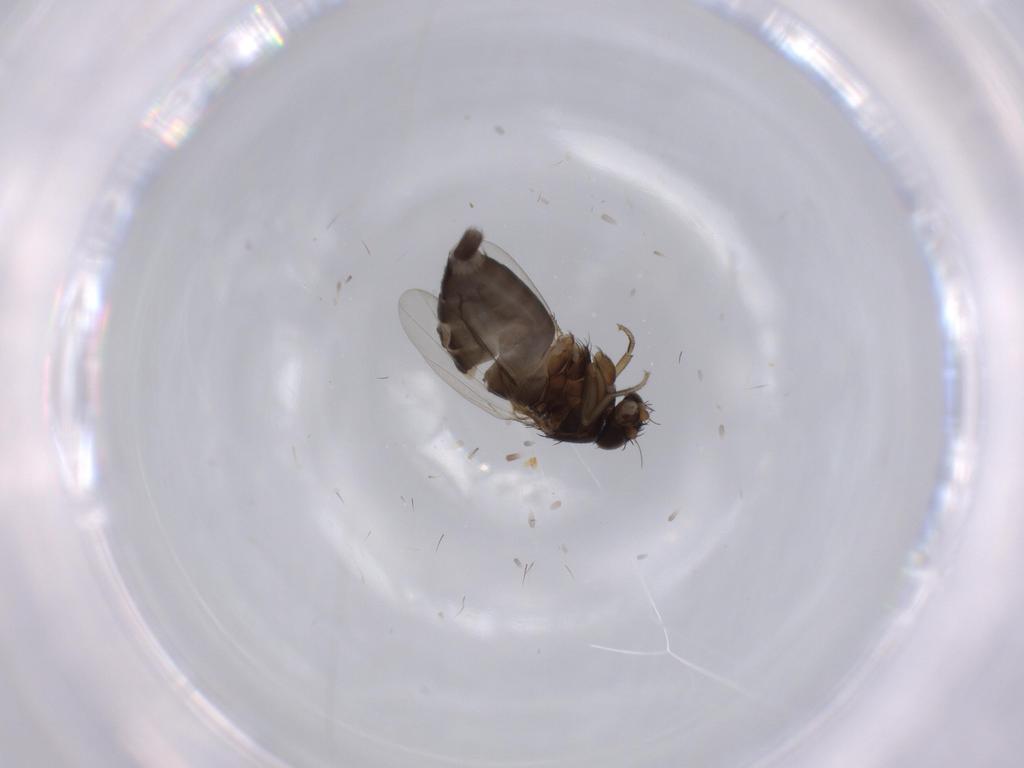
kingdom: Animalia
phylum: Arthropoda
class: Insecta
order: Diptera
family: Phoridae
